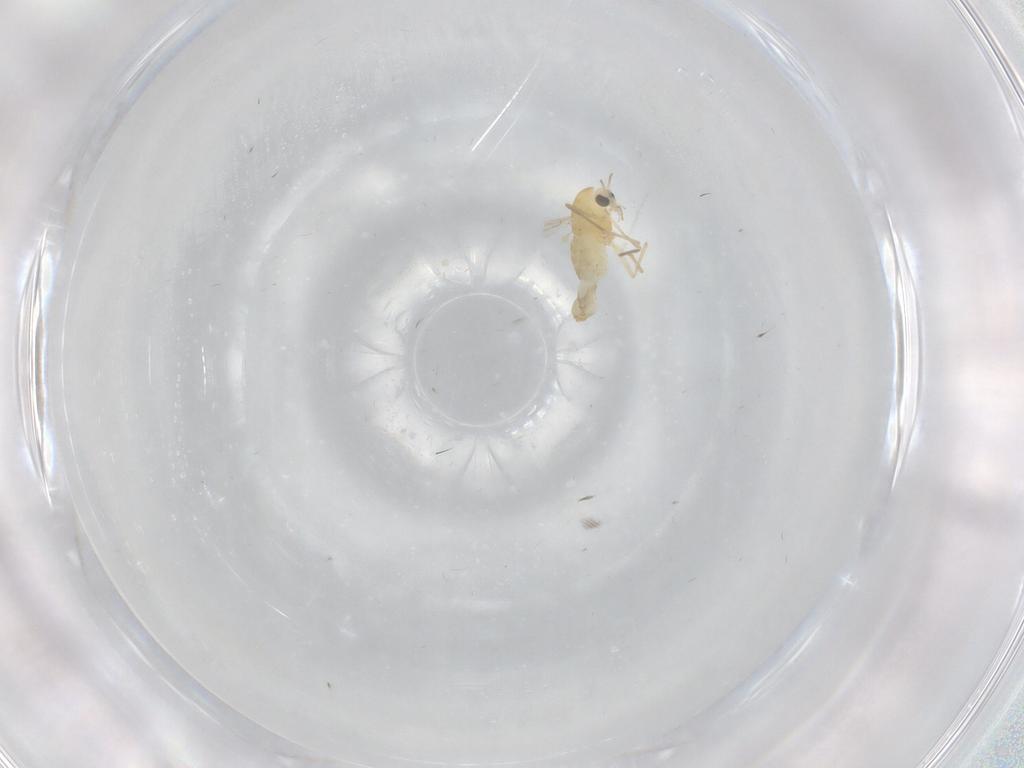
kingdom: Animalia
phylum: Arthropoda
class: Insecta
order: Diptera
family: Chironomidae
